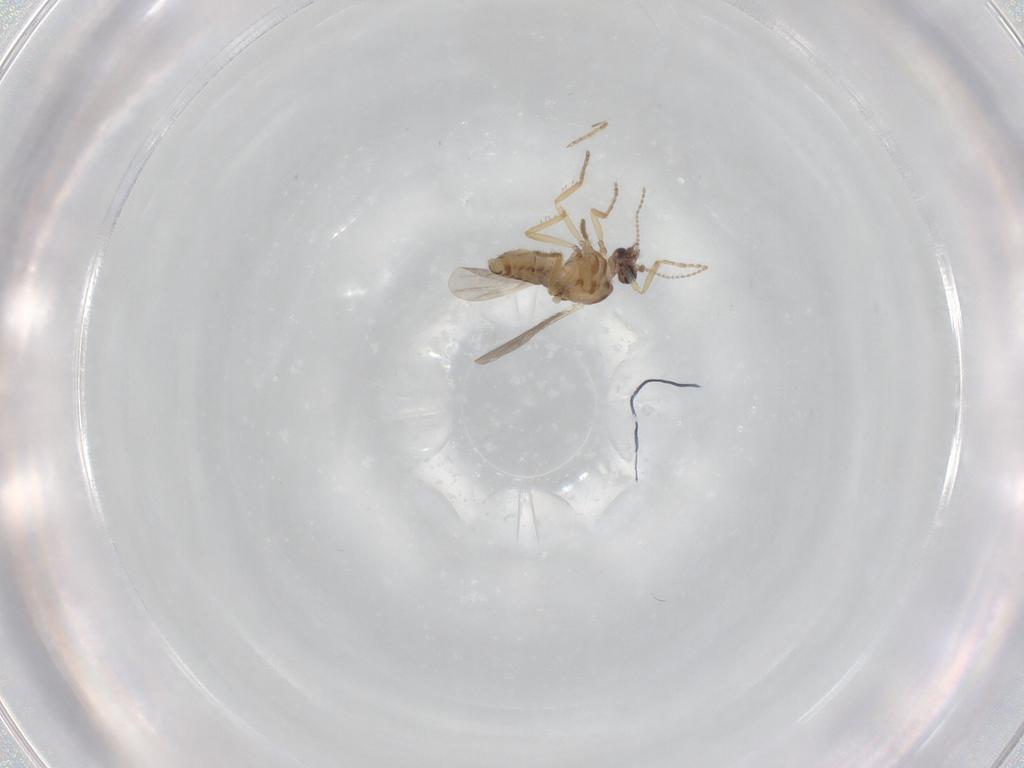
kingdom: Animalia
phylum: Arthropoda
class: Insecta
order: Diptera
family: Ceratopogonidae
